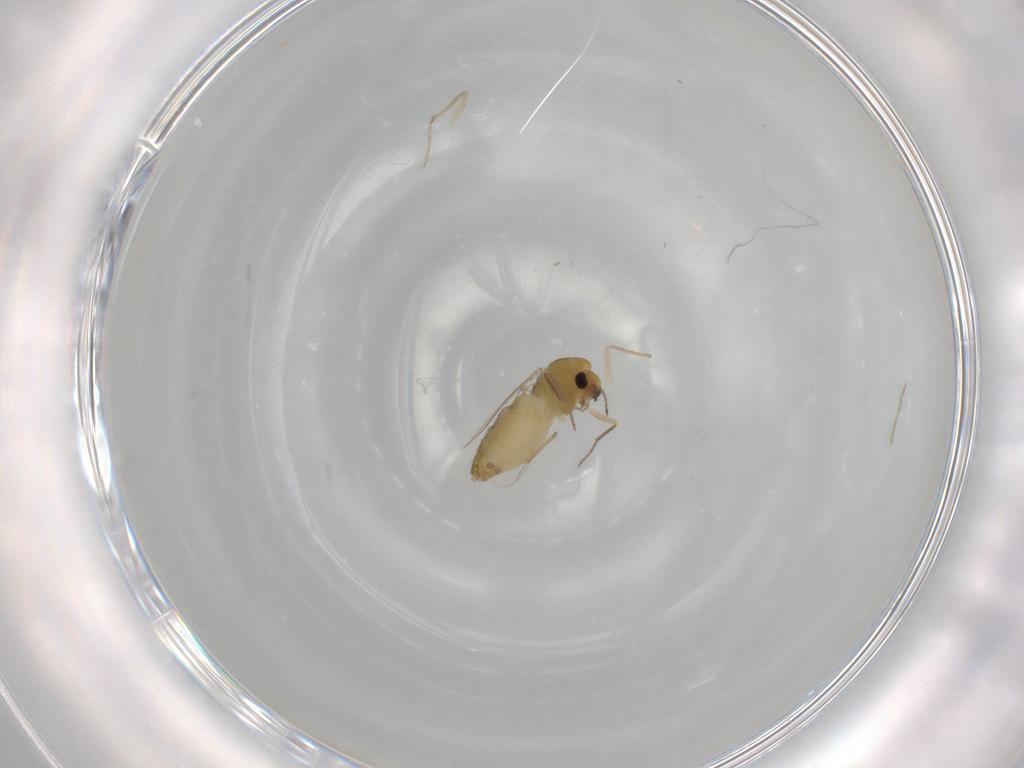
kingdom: Animalia
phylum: Arthropoda
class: Insecta
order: Diptera
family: Chironomidae
